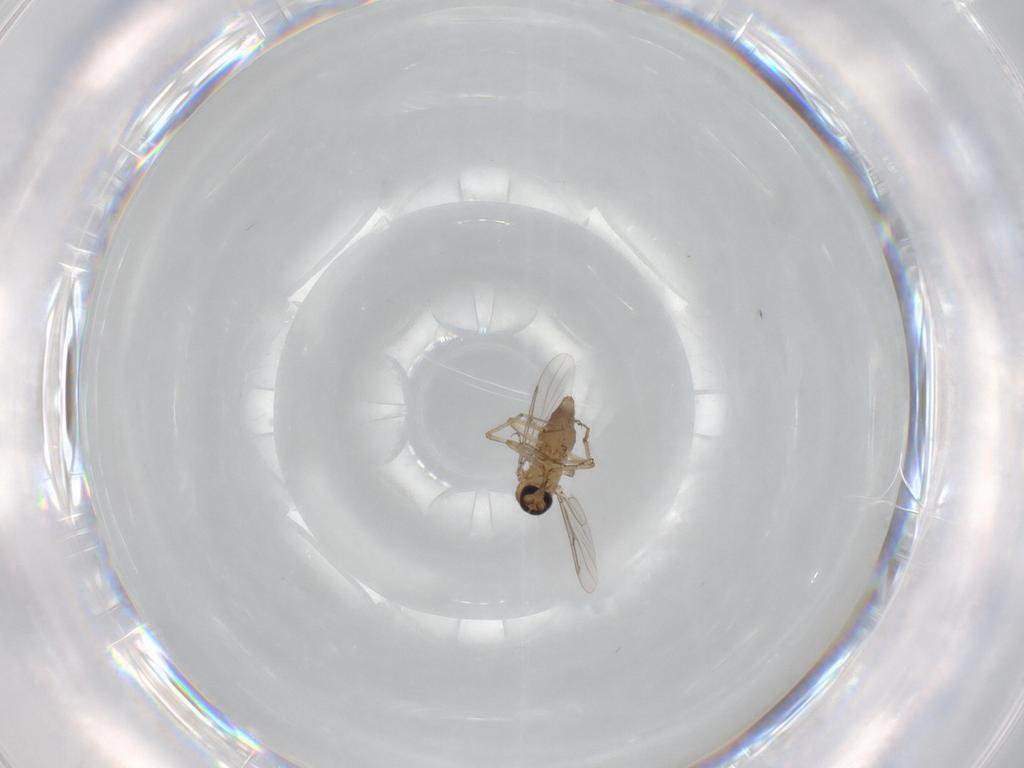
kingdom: Animalia
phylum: Arthropoda
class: Insecta
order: Diptera
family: Ceratopogonidae
